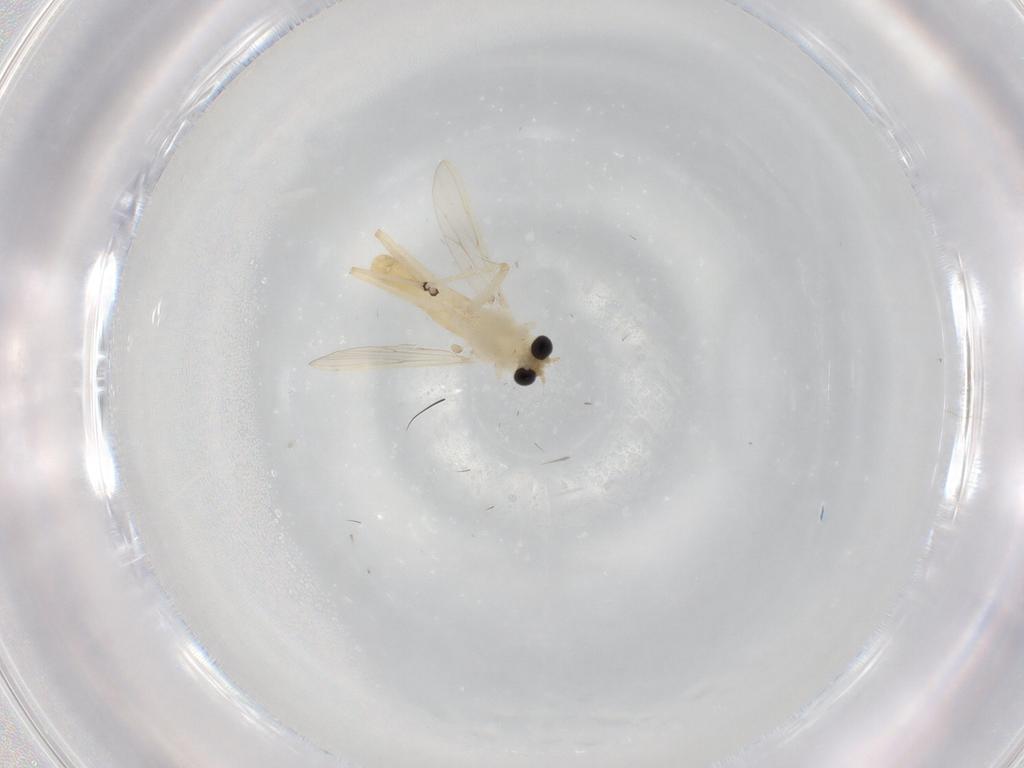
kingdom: Animalia
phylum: Arthropoda
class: Insecta
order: Diptera
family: Chironomidae
